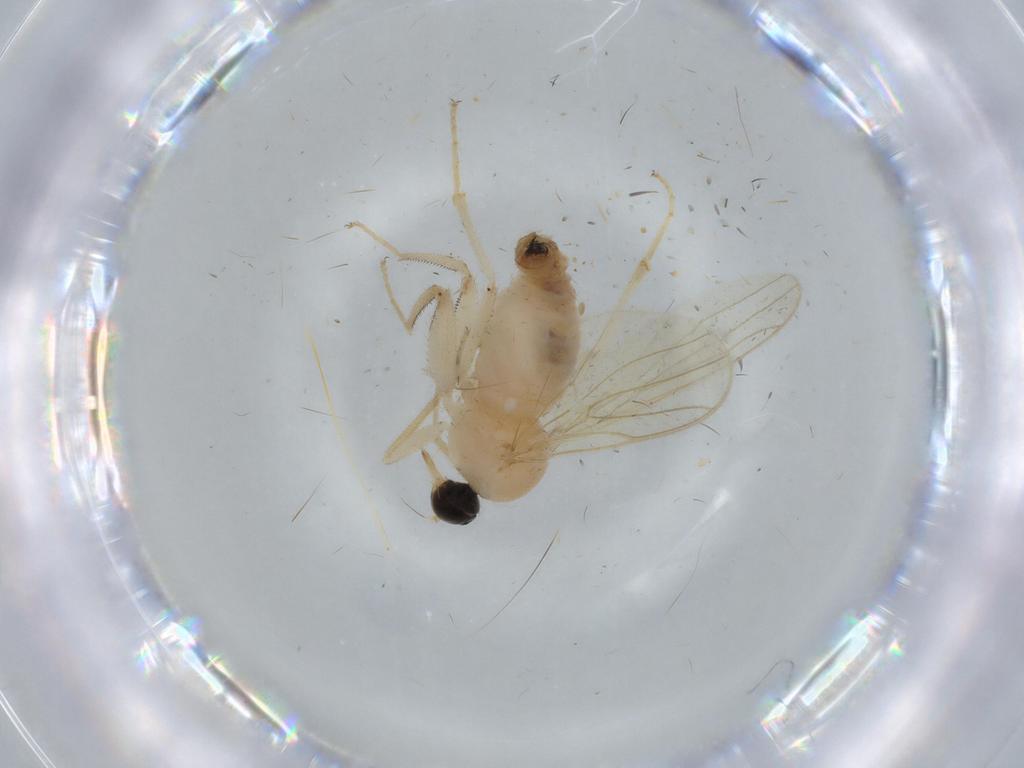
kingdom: Animalia
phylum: Arthropoda
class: Insecta
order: Diptera
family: Hybotidae
